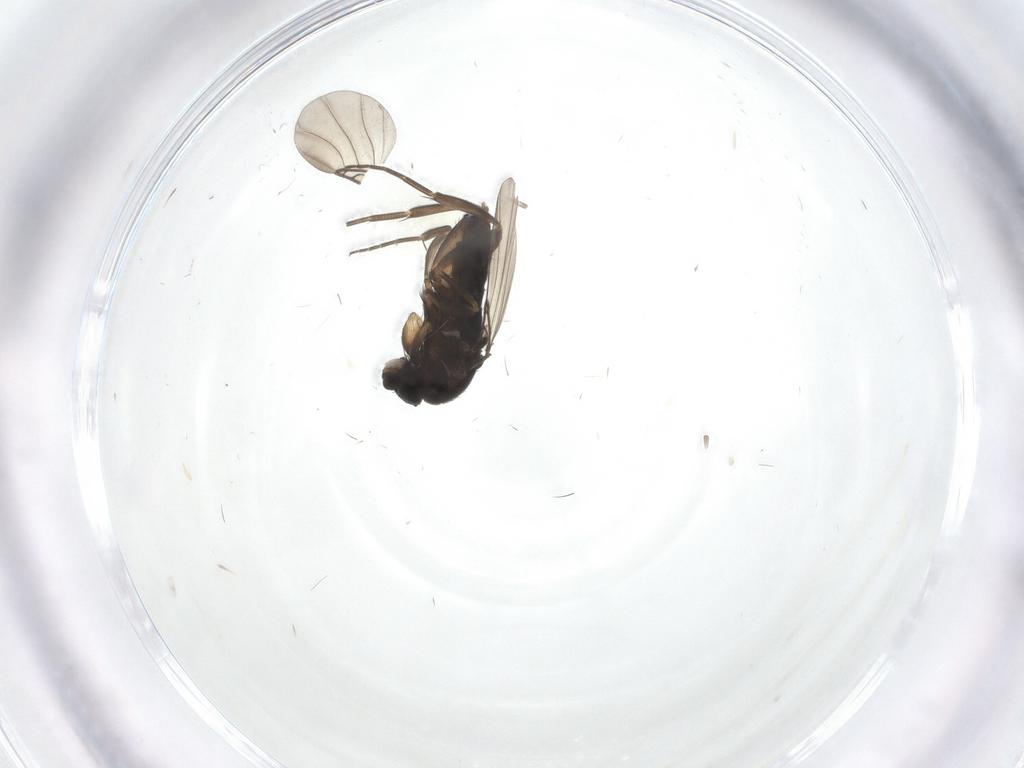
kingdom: Animalia
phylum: Arthropoda
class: Insecta
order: Diptera
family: Phoridae
